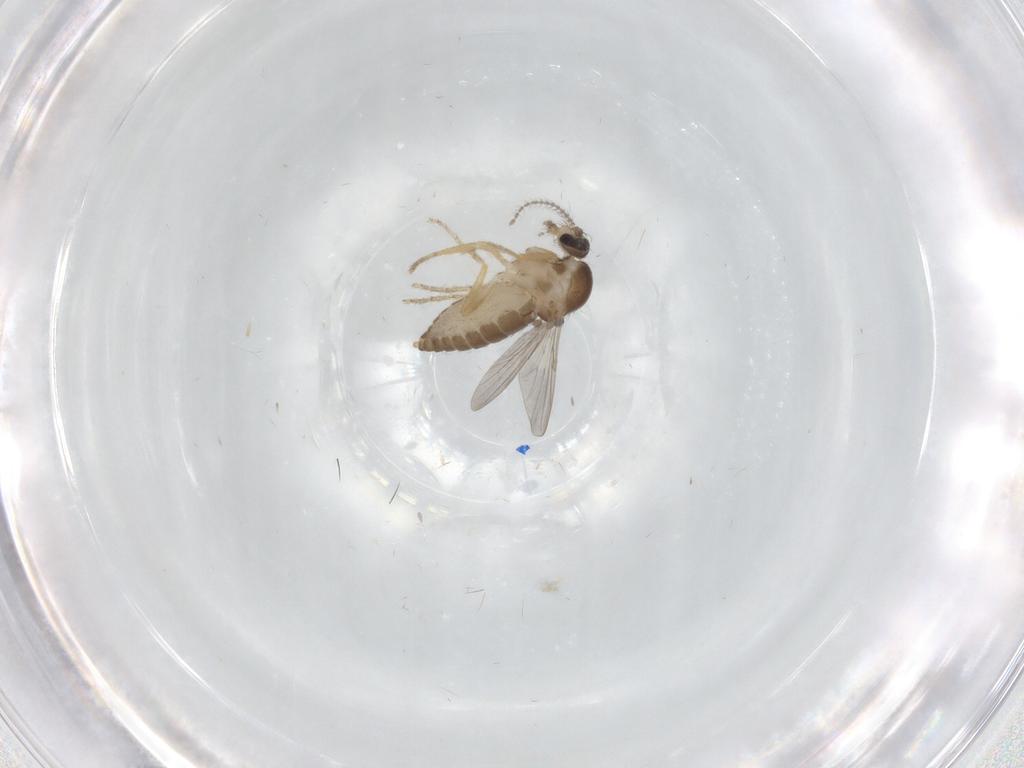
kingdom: Animalia
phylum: Arthropoda
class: Insecta
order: Diptera
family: Ceratopogonidae
